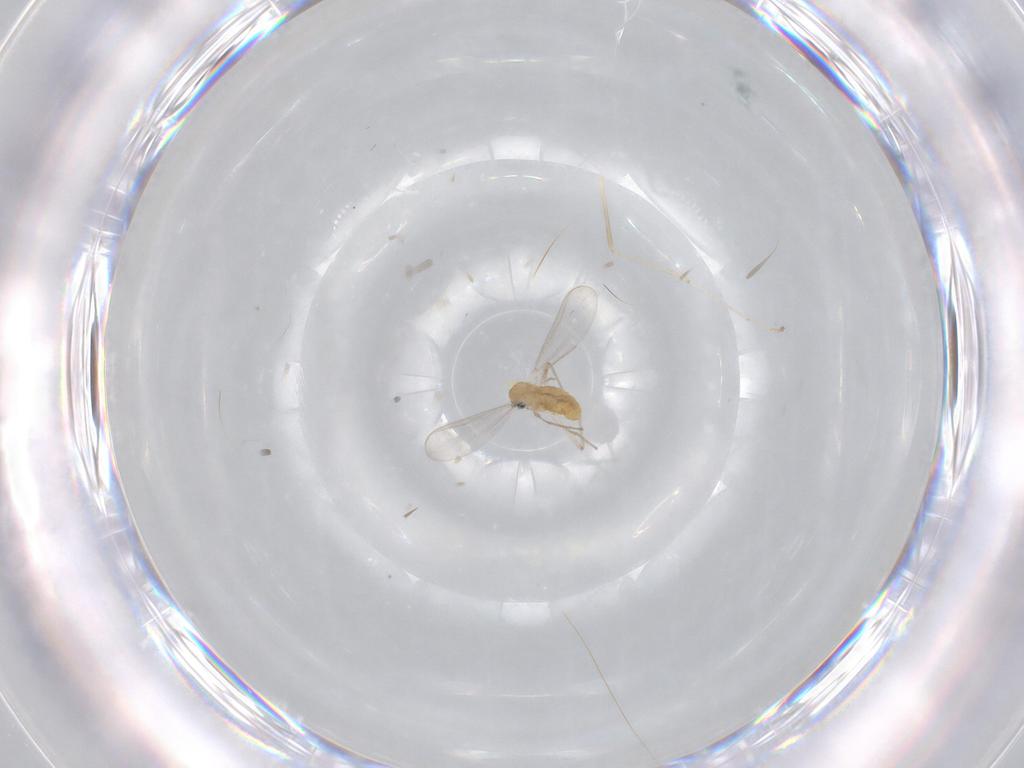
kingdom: Animalia
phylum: Arthropoda
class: Insecta
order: Diptera
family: Chironomidae
